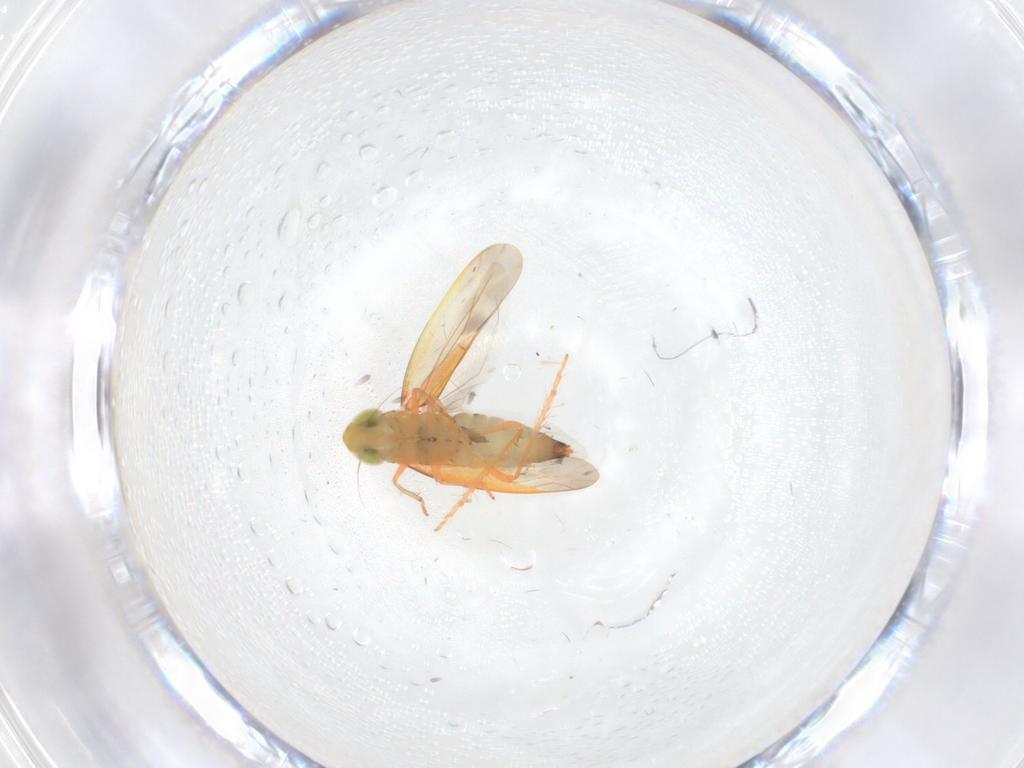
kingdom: Animalia
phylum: Arthropoda
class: Insecta
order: Hemiptera
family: Cicadellidae
